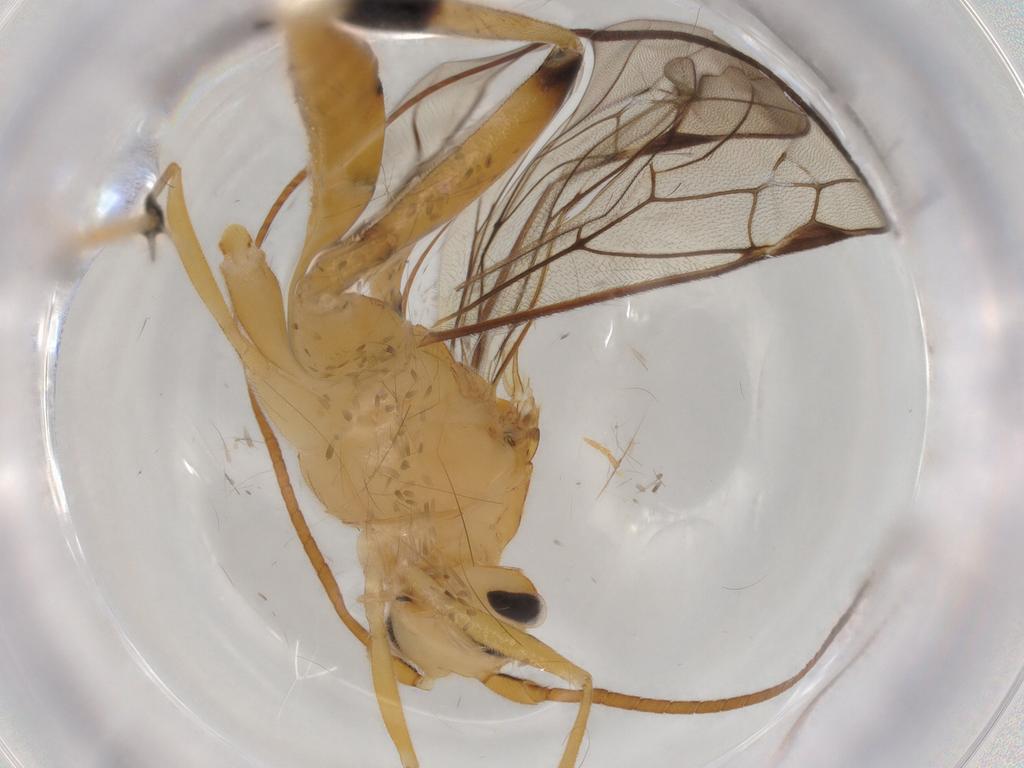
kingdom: Animalia
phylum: Arthropoda
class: Insecta
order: Hymenoptera
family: Braconidae
